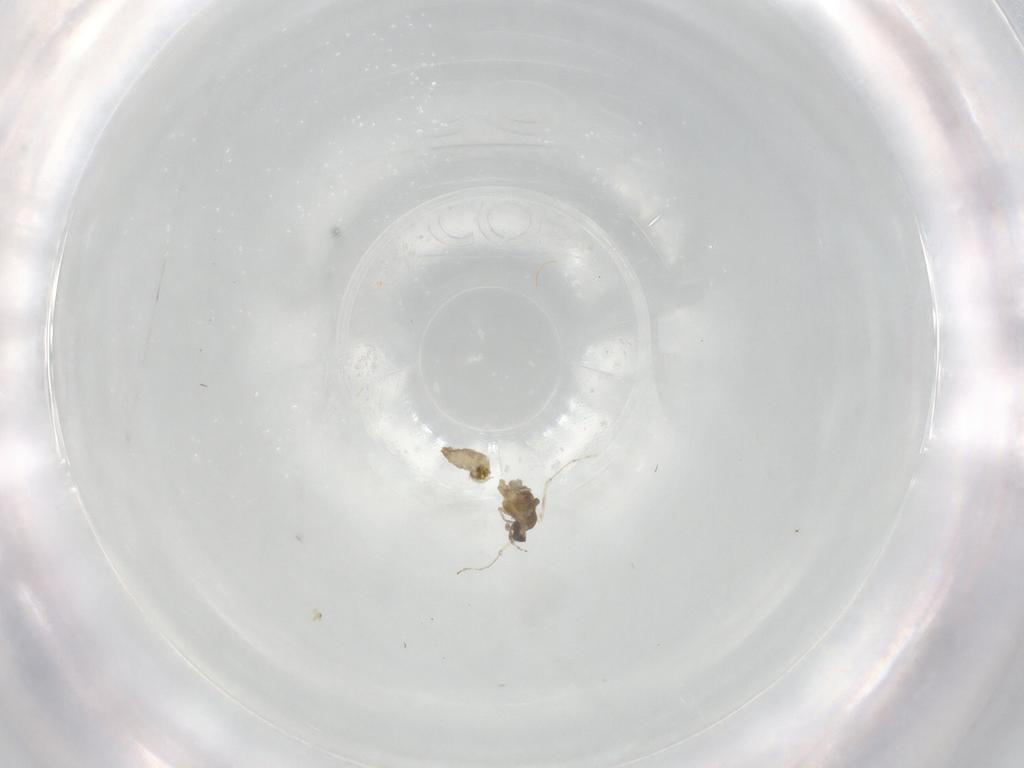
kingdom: Animalia
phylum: Arthropoda
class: Insecta
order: Diptera
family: Cecidomyiidae
